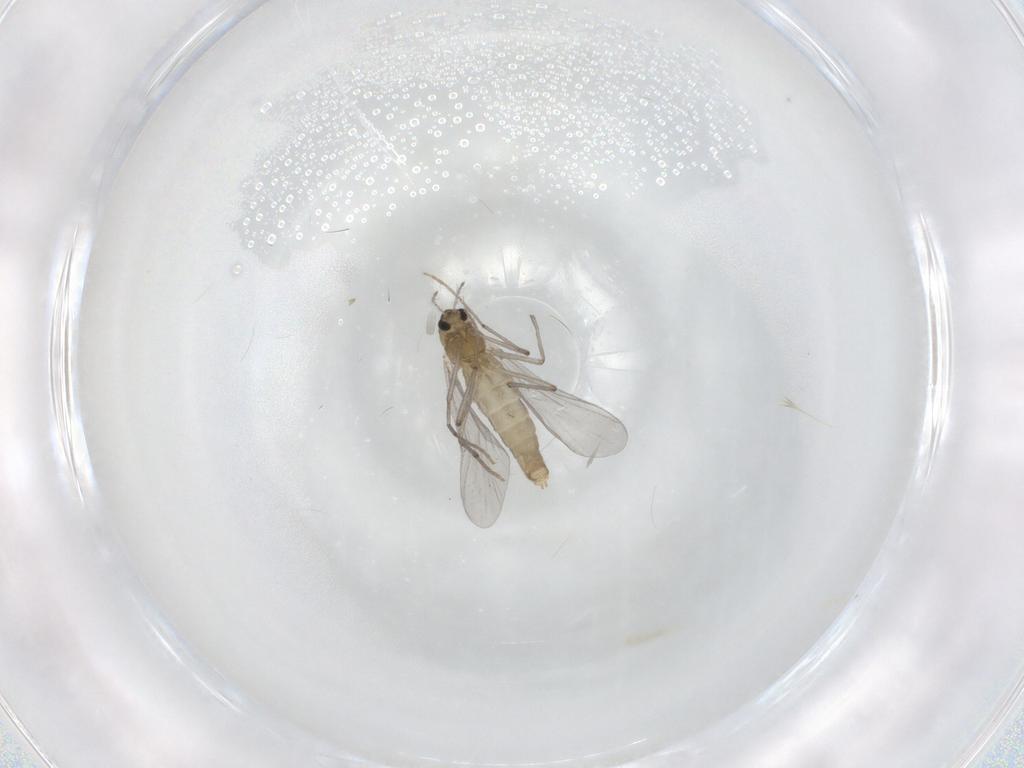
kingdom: Animalia
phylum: Arthropoda
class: Insecta
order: Diptera
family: Chironomidae
